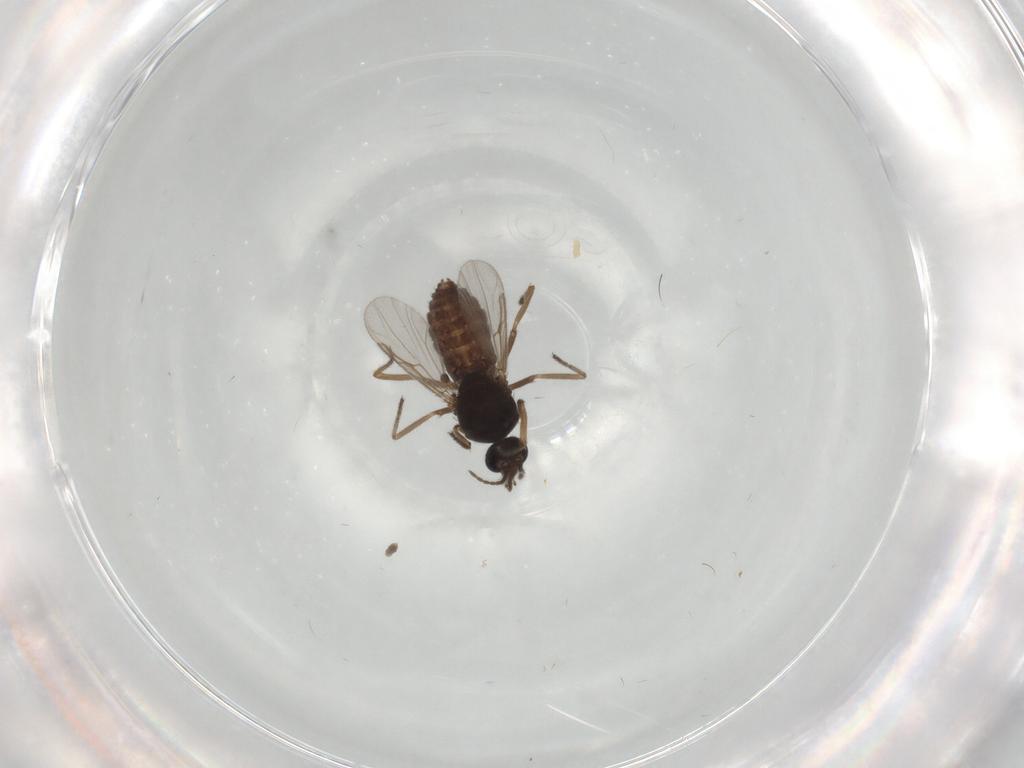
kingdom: Animalia
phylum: Arthropoda
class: Insecta
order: Diptera
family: Ceratopogonidae
